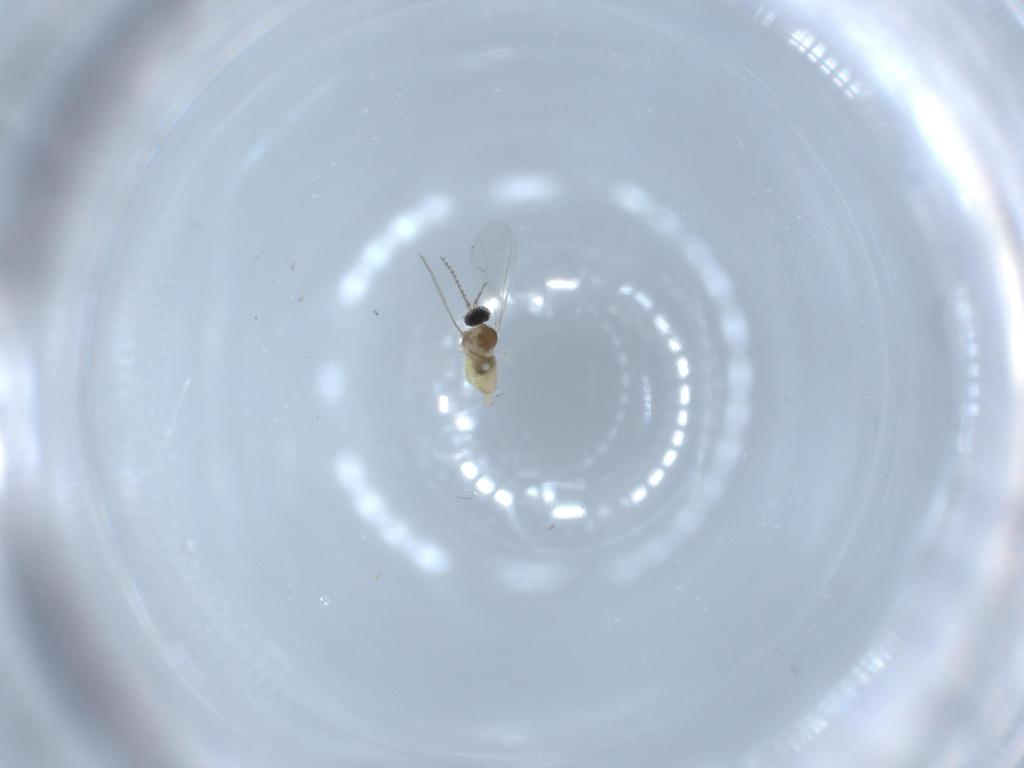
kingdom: Animalia
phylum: Arthropoda
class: Insecta
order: Diptera
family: Cecidomyiidae
